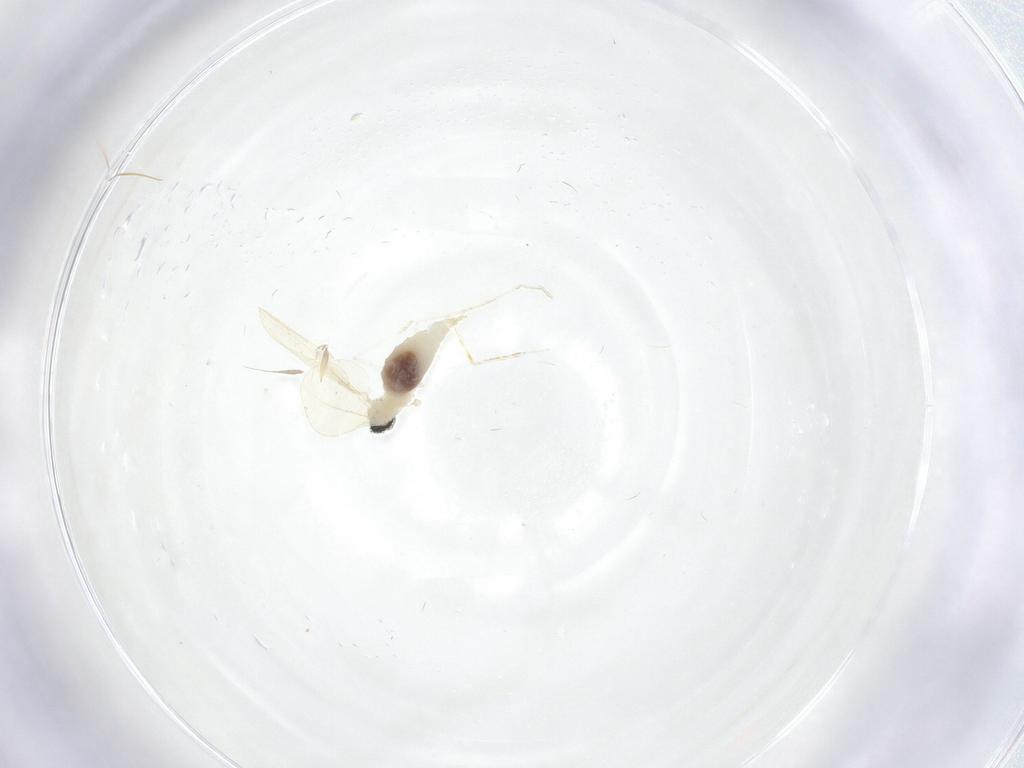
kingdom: Animalia
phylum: Arthropoda
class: Insecta
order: Diptera
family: Cecidomyiidae
